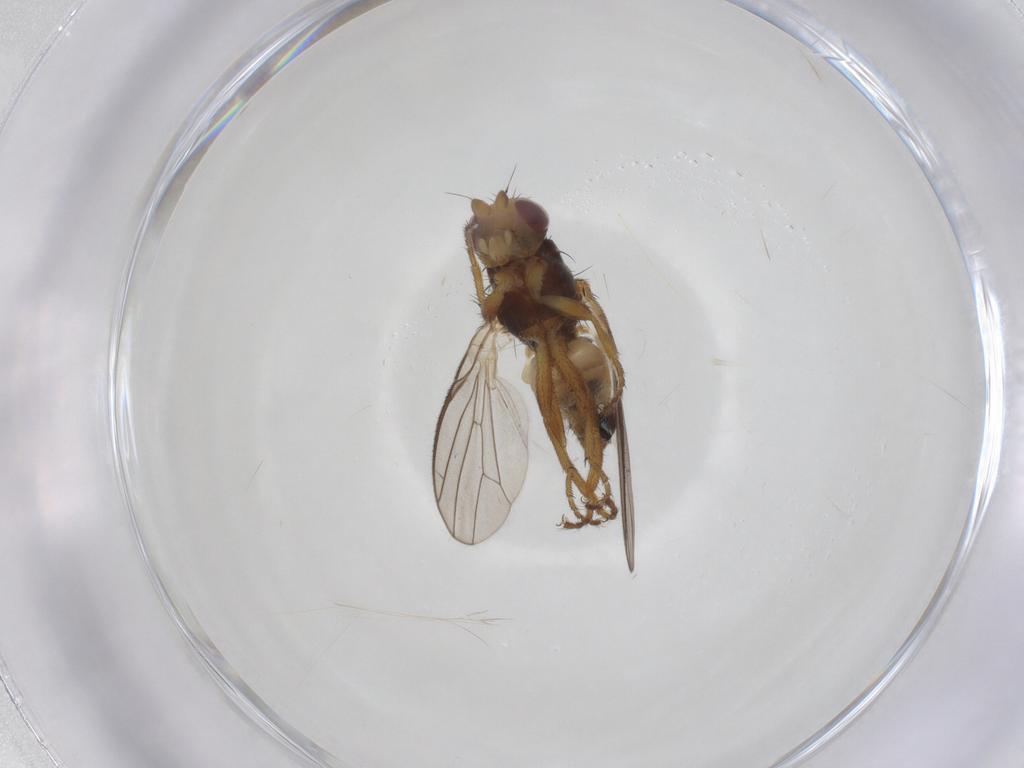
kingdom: Animalia
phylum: Arthropoda
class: Insecta
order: Diptera
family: Sphaeroceridae
